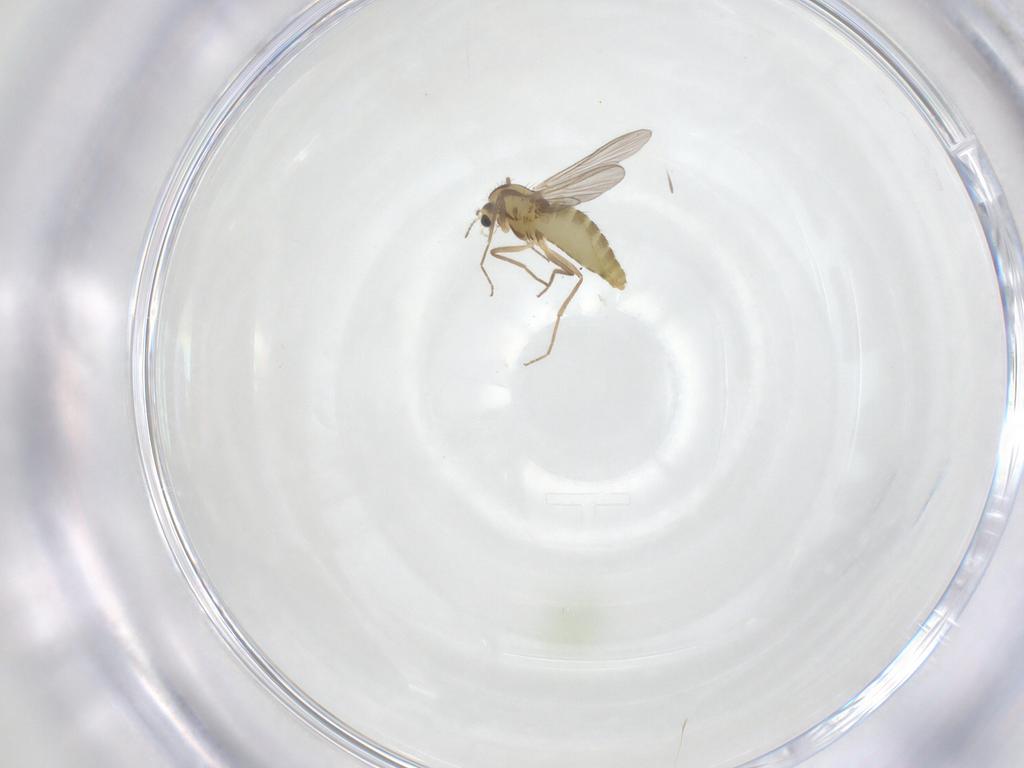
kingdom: Animalia
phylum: Arthropoda
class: Insecta
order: Diptera
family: Chironomidae
